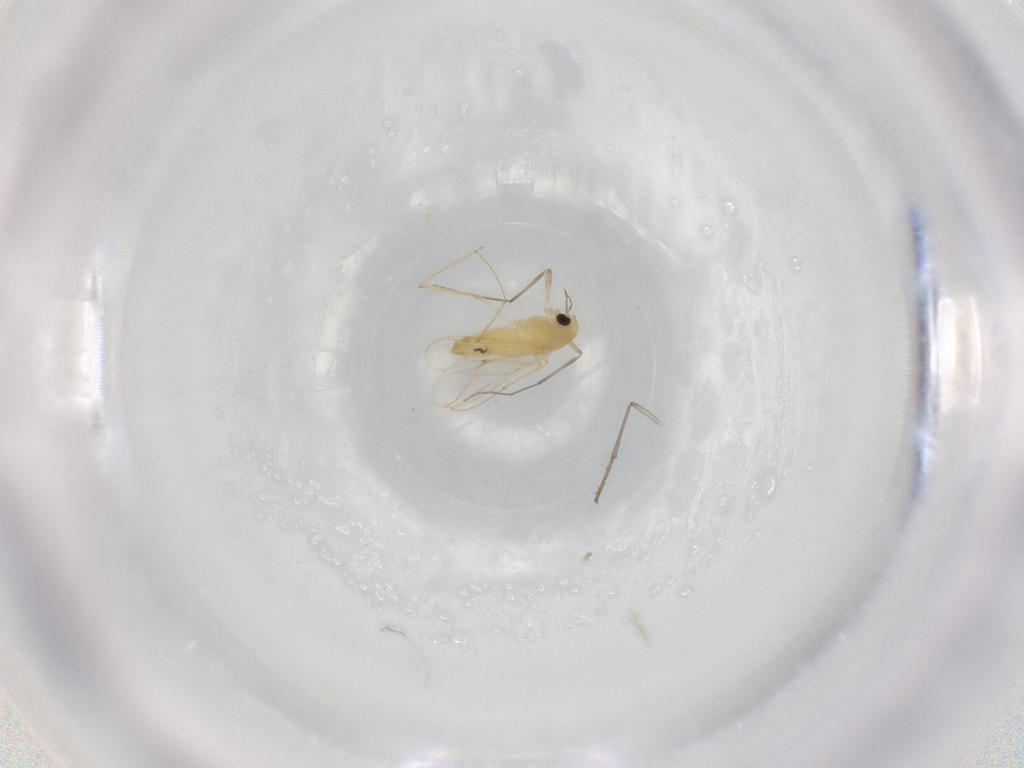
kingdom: Animalia
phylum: Arthropoda
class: Insecta
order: Diptera
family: Chironomidae
